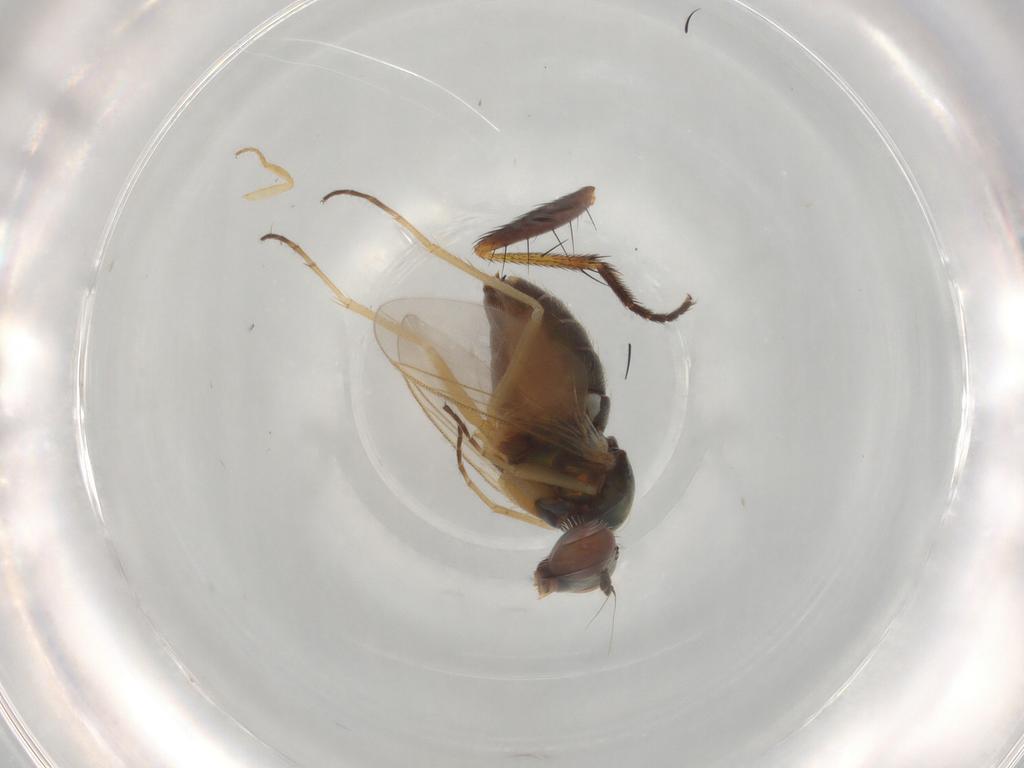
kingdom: Animalia
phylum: Arthropoda
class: Insecta
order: Diptera
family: Dolichopodidae
